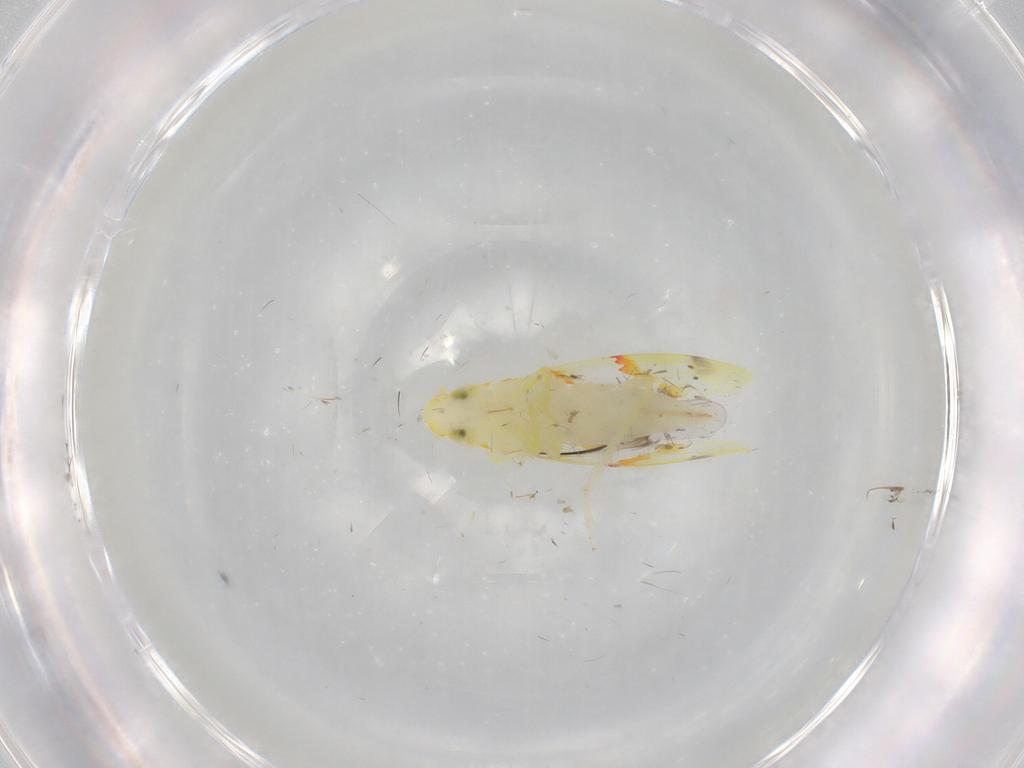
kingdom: Animalia
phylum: Arthropoda
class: Insecta
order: Hemiptera
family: Cicadellidae
